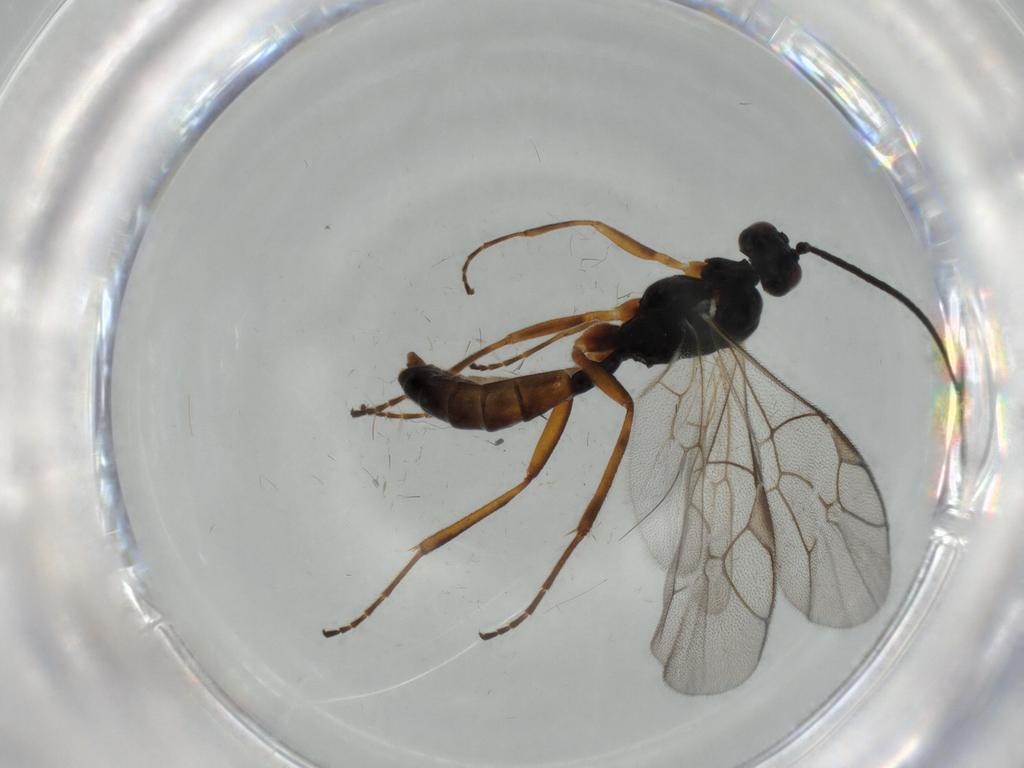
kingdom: Animalia
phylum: Arthropoda
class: Insecta
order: Hymenoptera
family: Ichneumonidae
